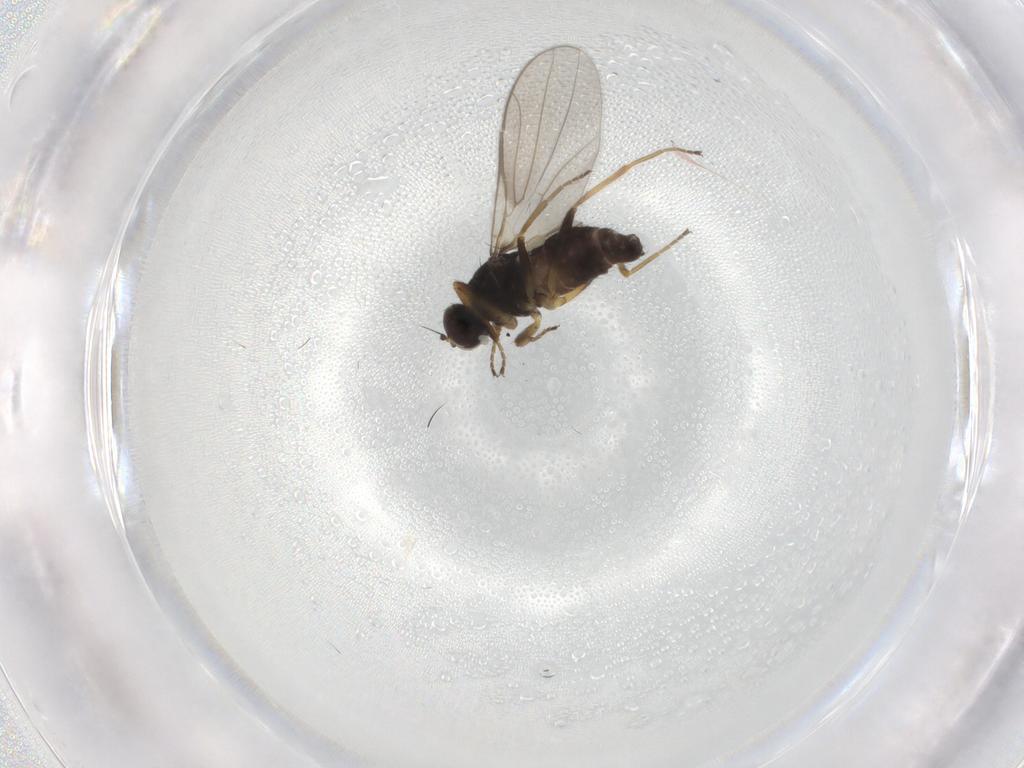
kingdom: Animalia
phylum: Arthropoda
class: Insecta
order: Diptera
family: Hybotidae
